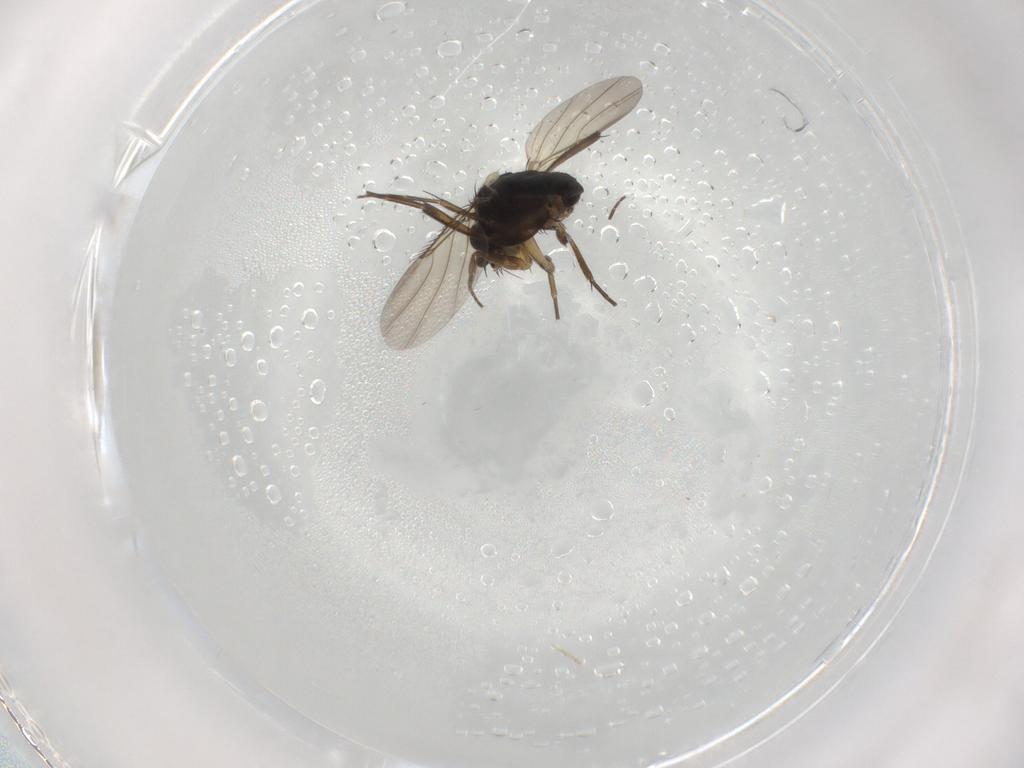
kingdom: Animalia
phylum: Arthropoda
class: Insecta
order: Diptera
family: Phoridae
